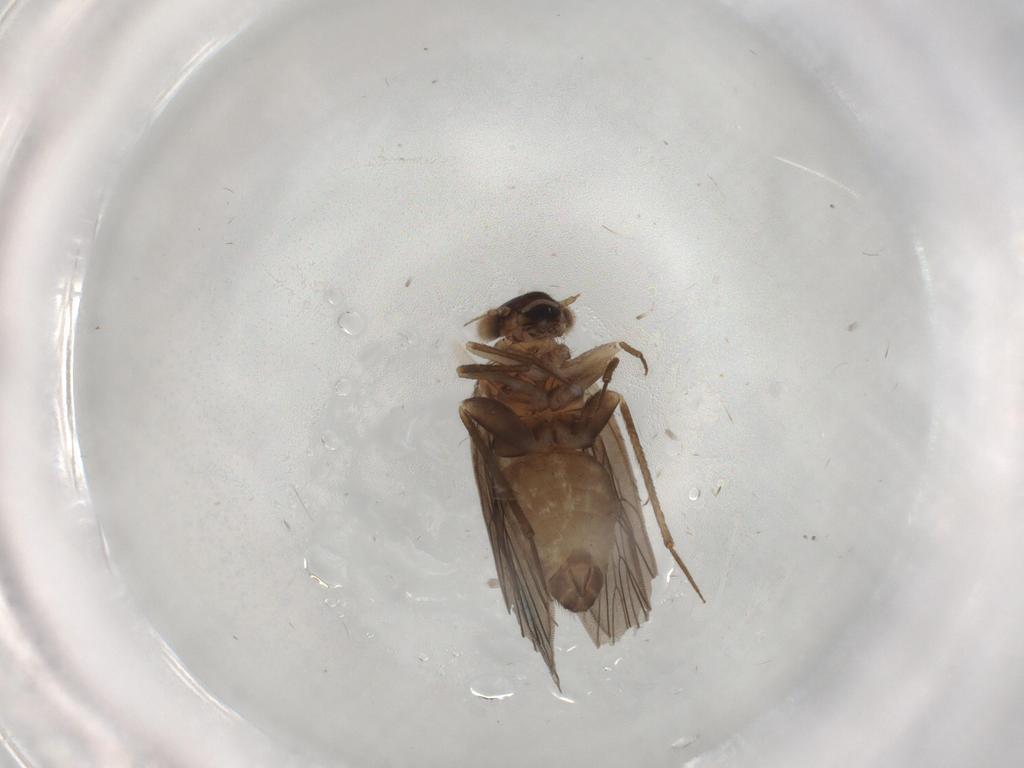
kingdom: Animalia
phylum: Arthropoda
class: Insecta
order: Psocodea
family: Lepidopsocidae
